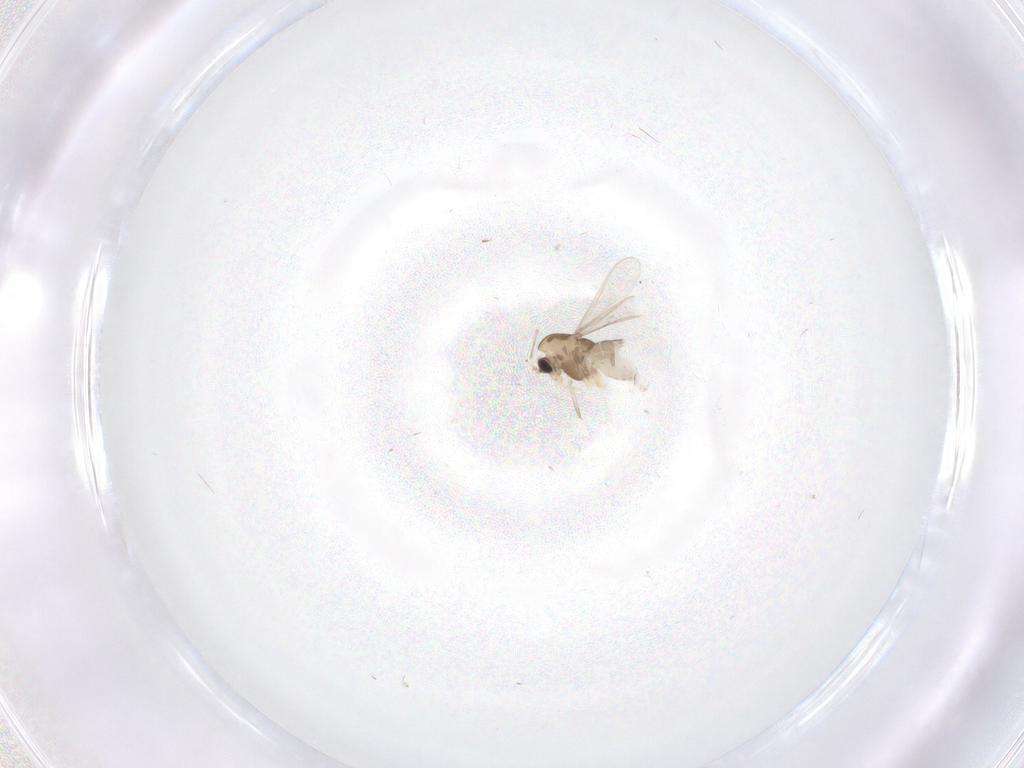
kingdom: Animalia
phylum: Arthropoda
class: Insecta
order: Diptera
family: Chironomidae
